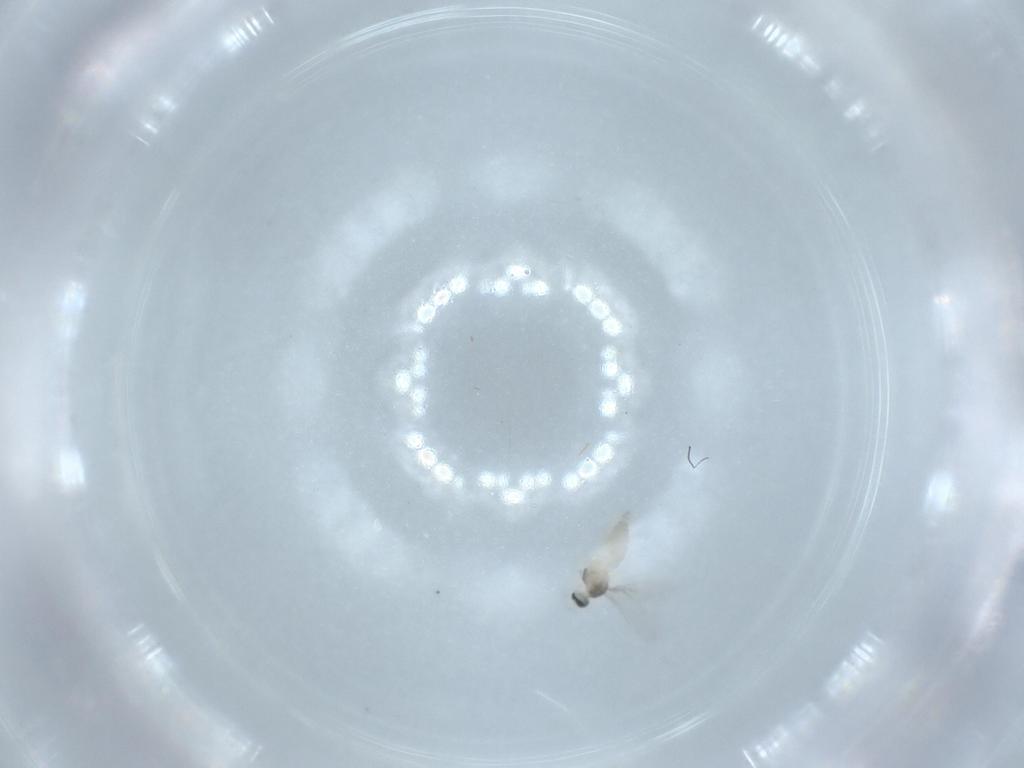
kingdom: Animalia
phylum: Arthropoda
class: Insecta
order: Diptera
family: Cecidomyiidae
